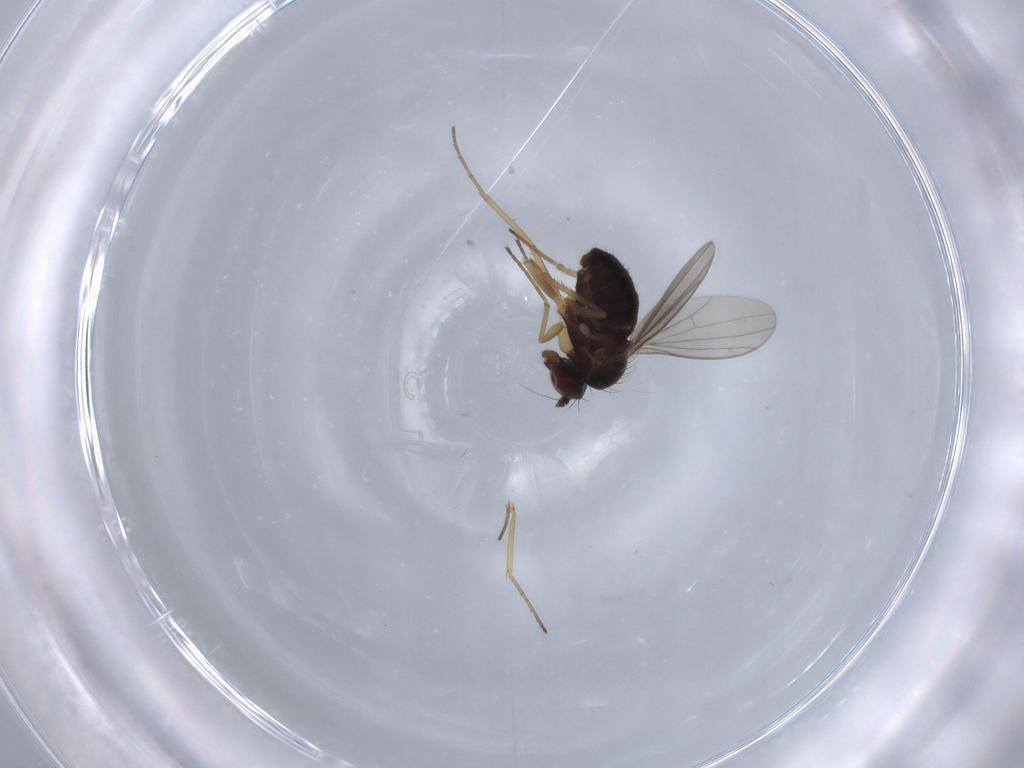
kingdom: Animalia
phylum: Arthropoda
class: Insecta
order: Diptera
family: Dolichopodidae
